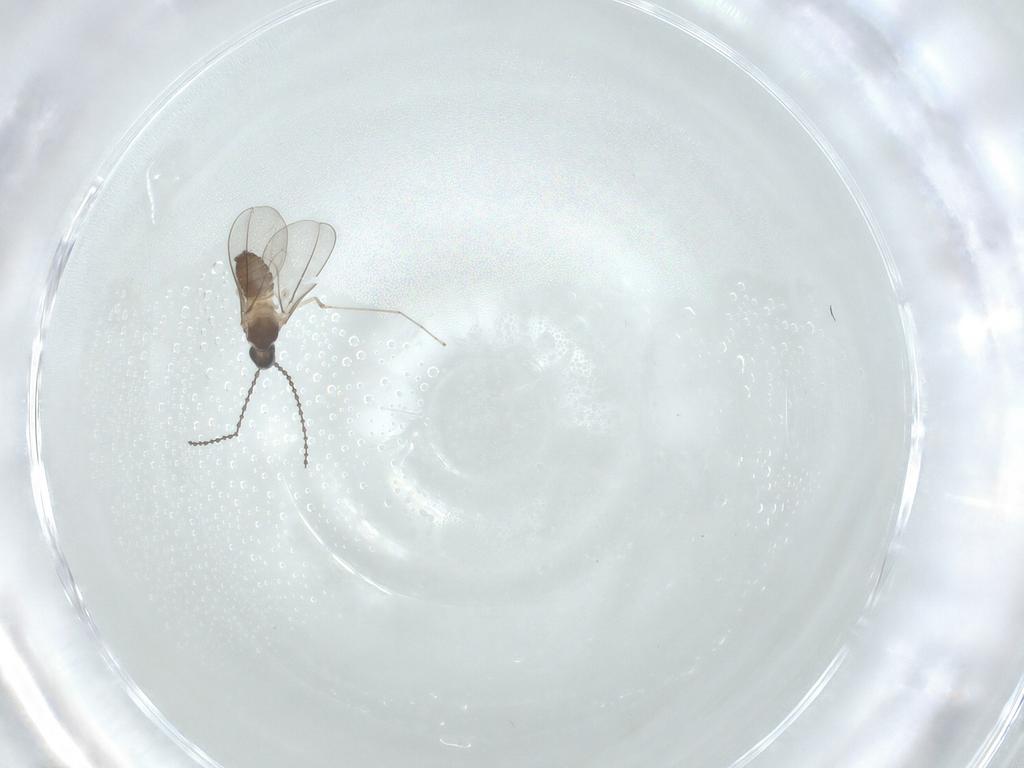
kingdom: Animalia
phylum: Arthropoda
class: Insecta
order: Diptera
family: Cecidomyiidae
